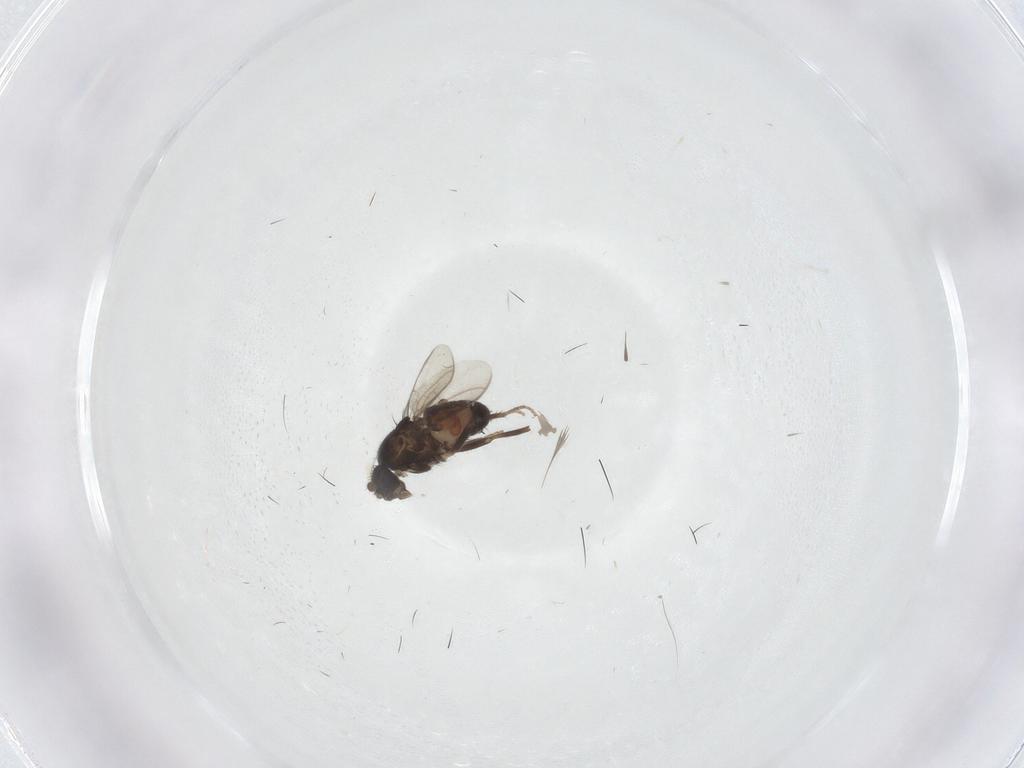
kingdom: Animalia
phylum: Arthropoda
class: Insecta
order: Diptera
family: Sphaeroceridae
